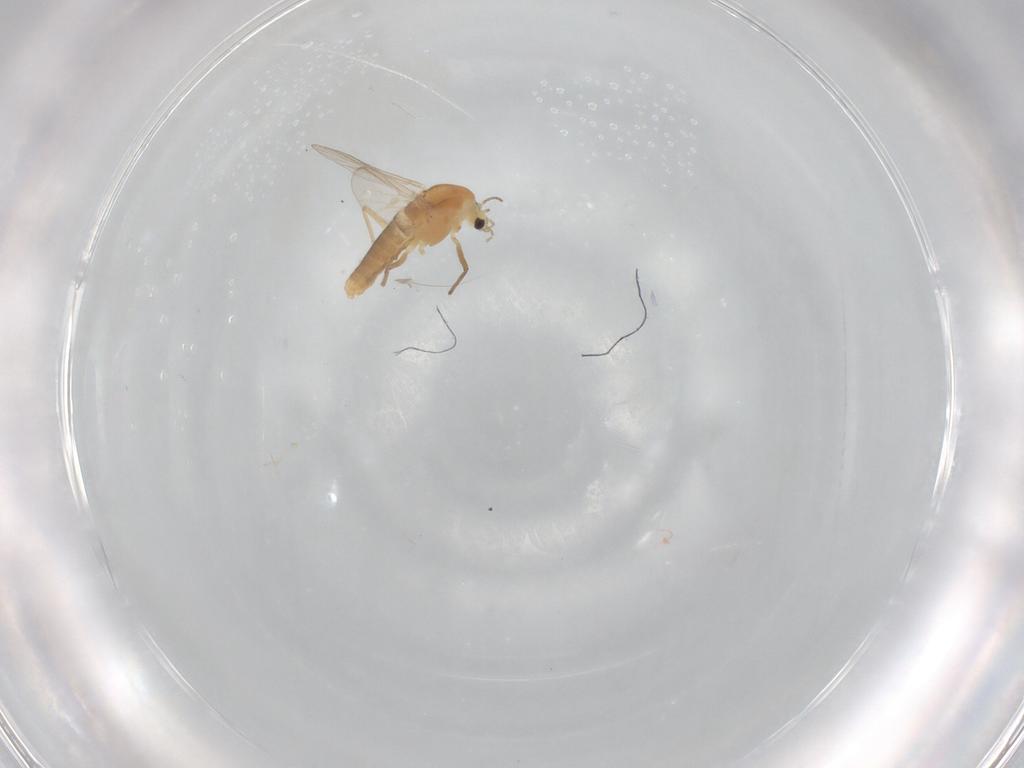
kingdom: Animalia
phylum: Arthropoda
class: Insecta
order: Diptera
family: Chironomidae
